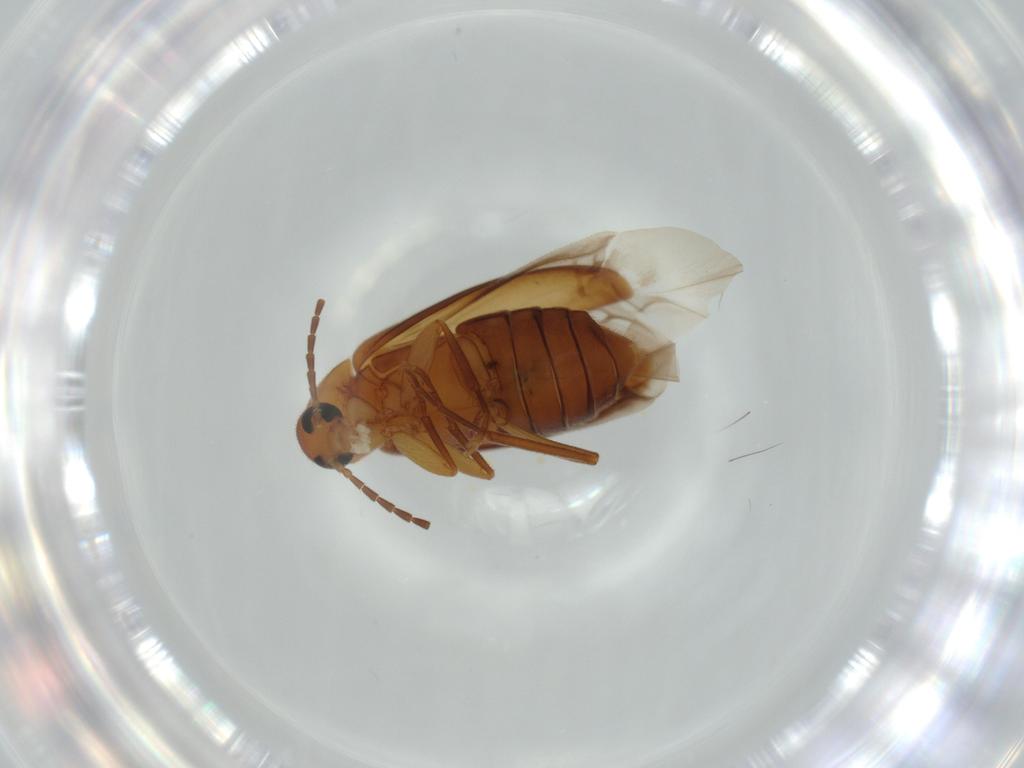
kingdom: Animalia
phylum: Arthropoda
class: Insecta
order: Coleoptera
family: Scraptiidae
